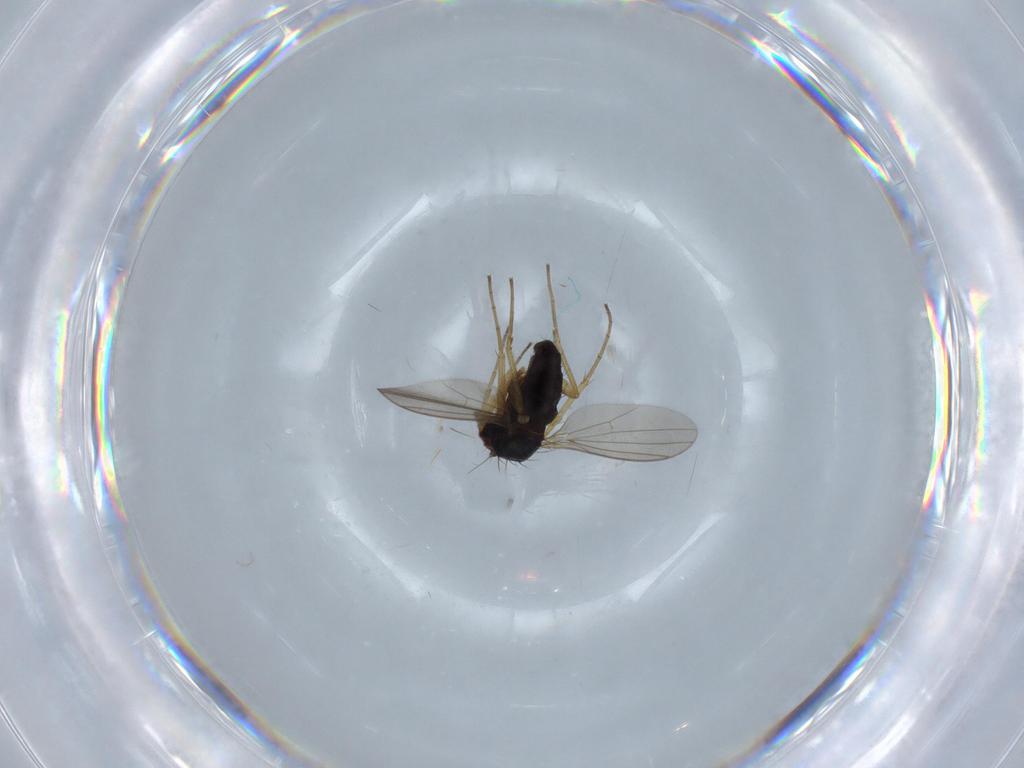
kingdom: Animalia
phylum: Arthropoda
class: Insecta
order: Diptera
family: Dolichopodidae
